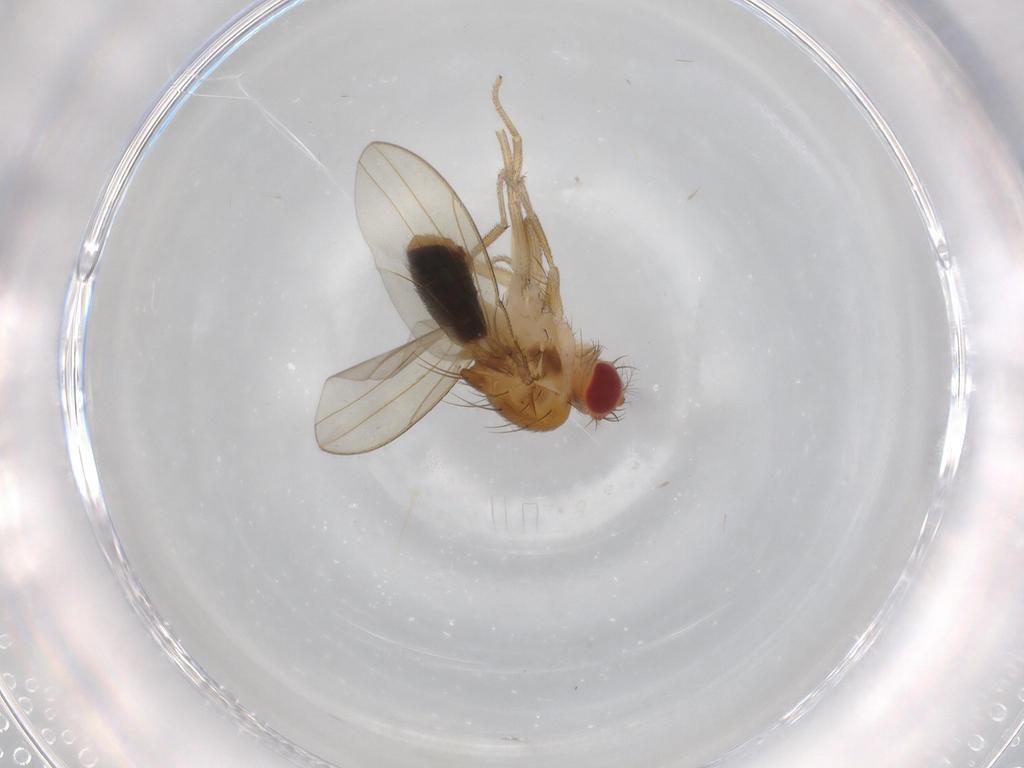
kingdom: Animalia
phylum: Arthropoda
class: Insecta
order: Diptera
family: Drosophilidae
